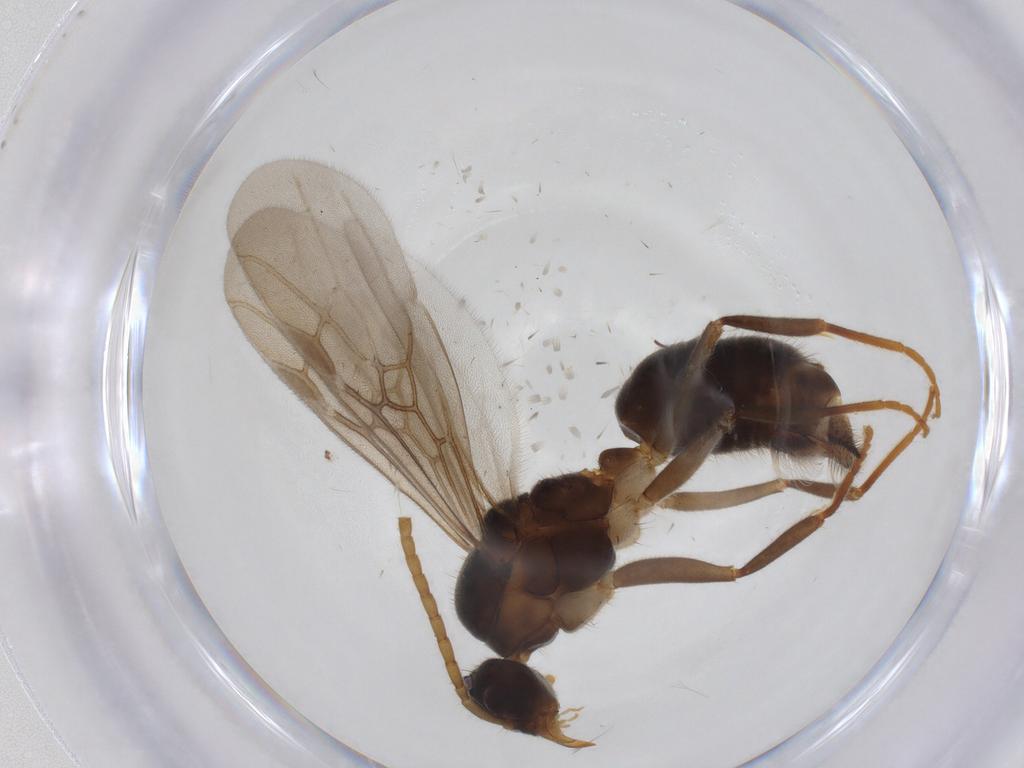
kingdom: Animalia
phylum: Arthropoda
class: Insecta
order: Hymenoptera
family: Formicidae
